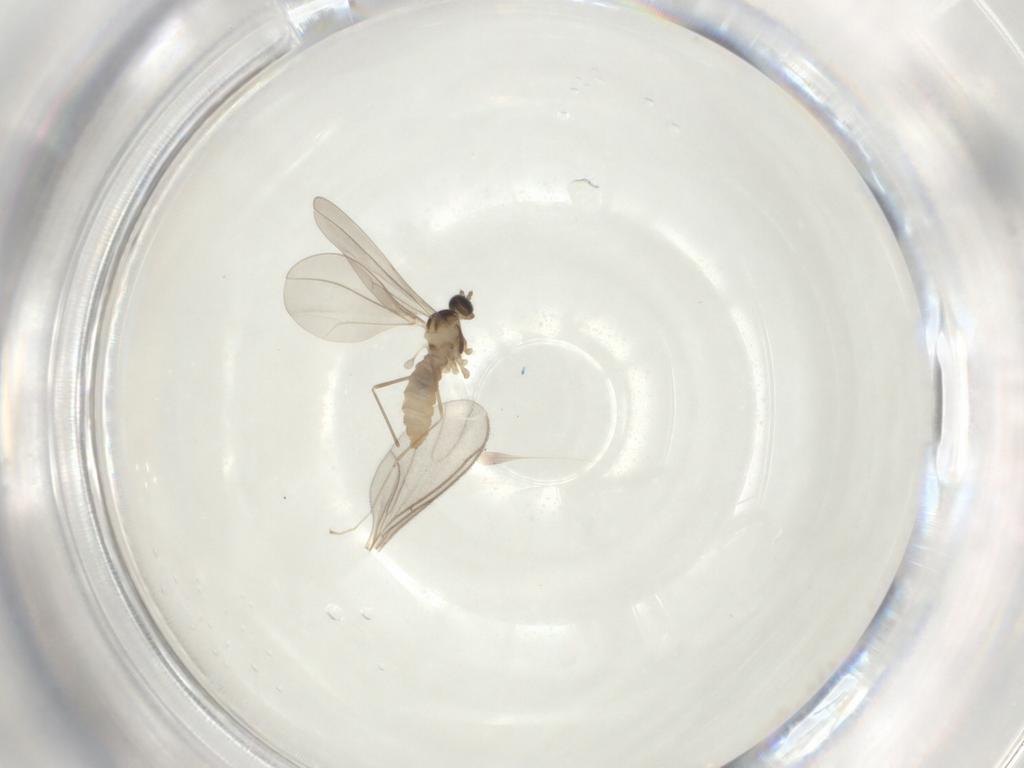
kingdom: Animalia
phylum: Arthropoda
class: Insecta
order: Diptera
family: Cecidomyiidae
